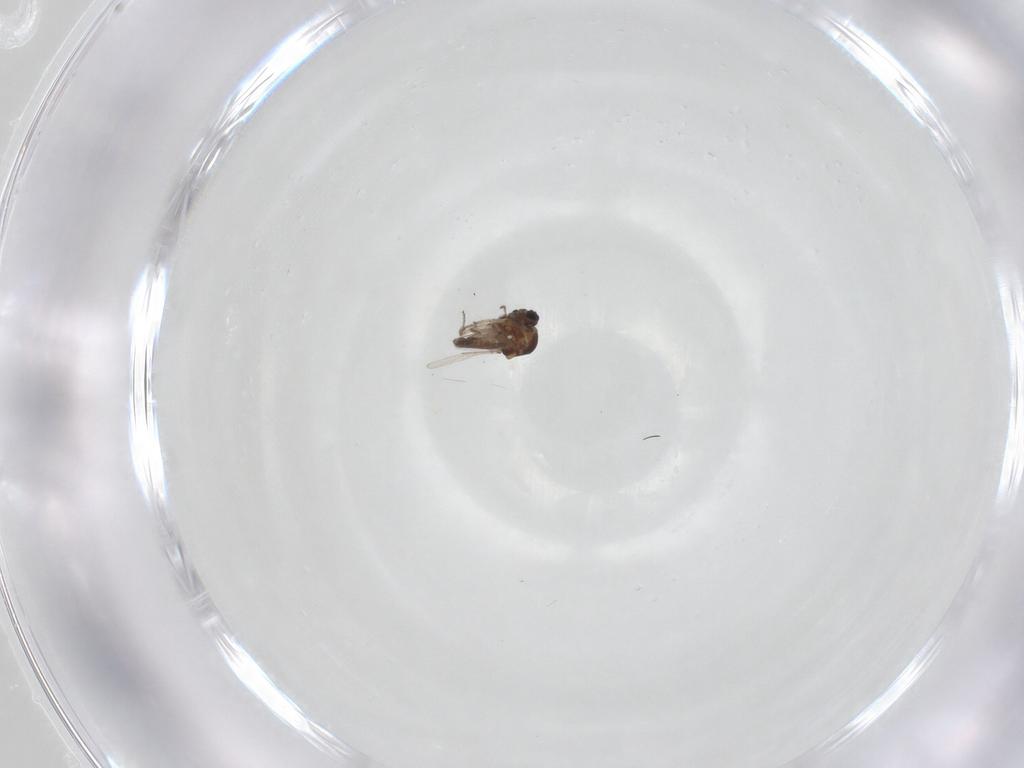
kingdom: Animalia
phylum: Arthropoda
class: Insecta
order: Diptera
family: Ceratopogonidae
